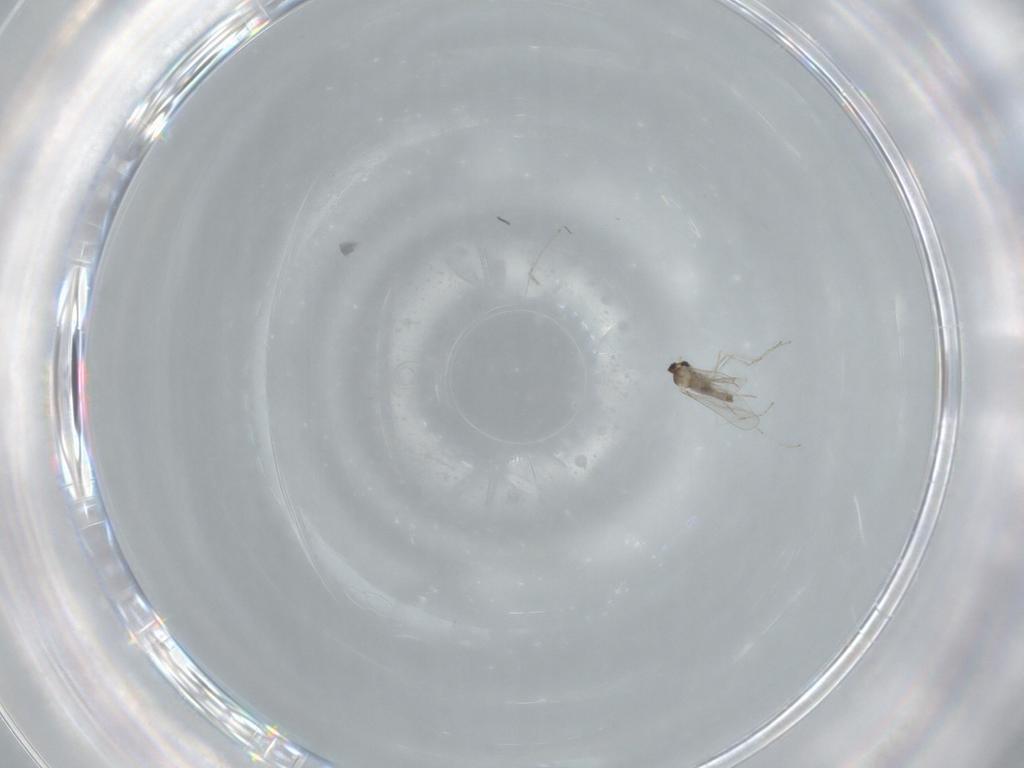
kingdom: Animalia
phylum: Arthropoda
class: Insecta
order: Diptera
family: Cecidomyiidae
